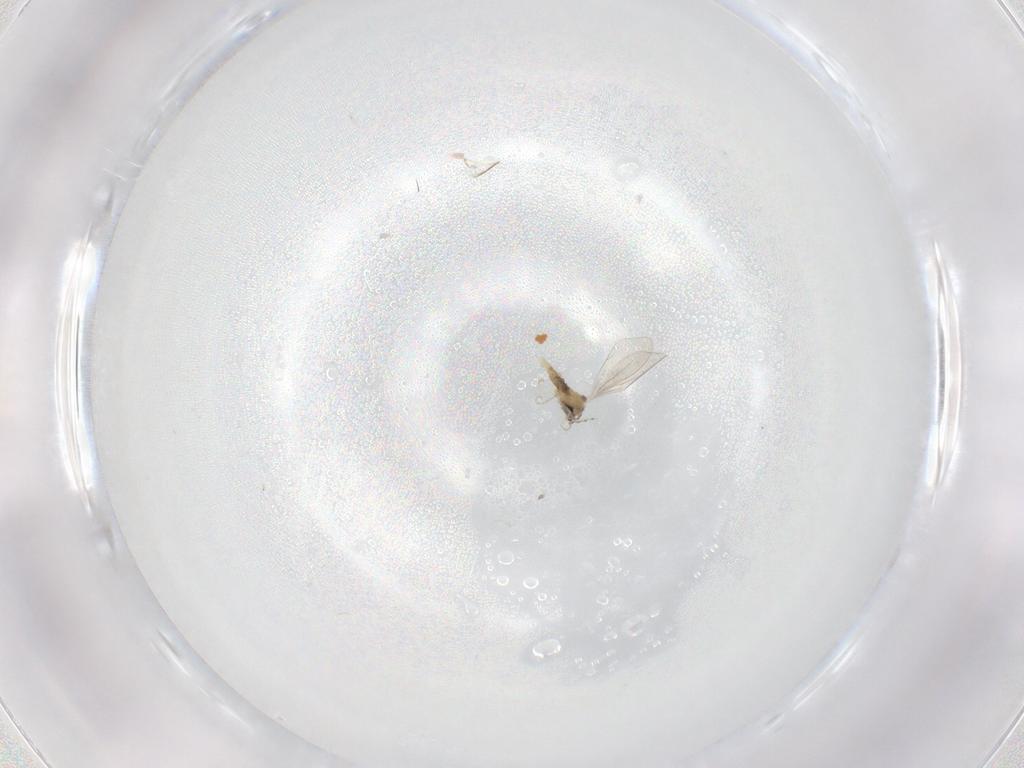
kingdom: Animalia
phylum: Arthropoda
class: Insecta
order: Diptera
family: Cecidomyiidae
